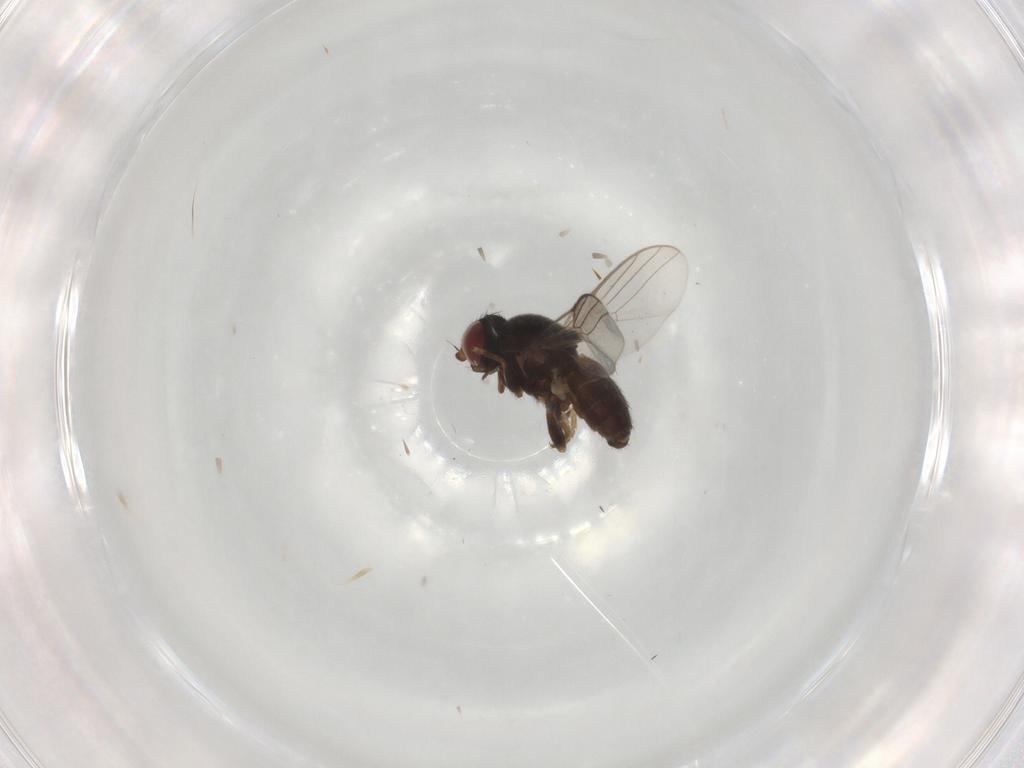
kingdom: Animalia
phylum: Arthropoda
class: Insecta
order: Diptera
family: Chloropidae
